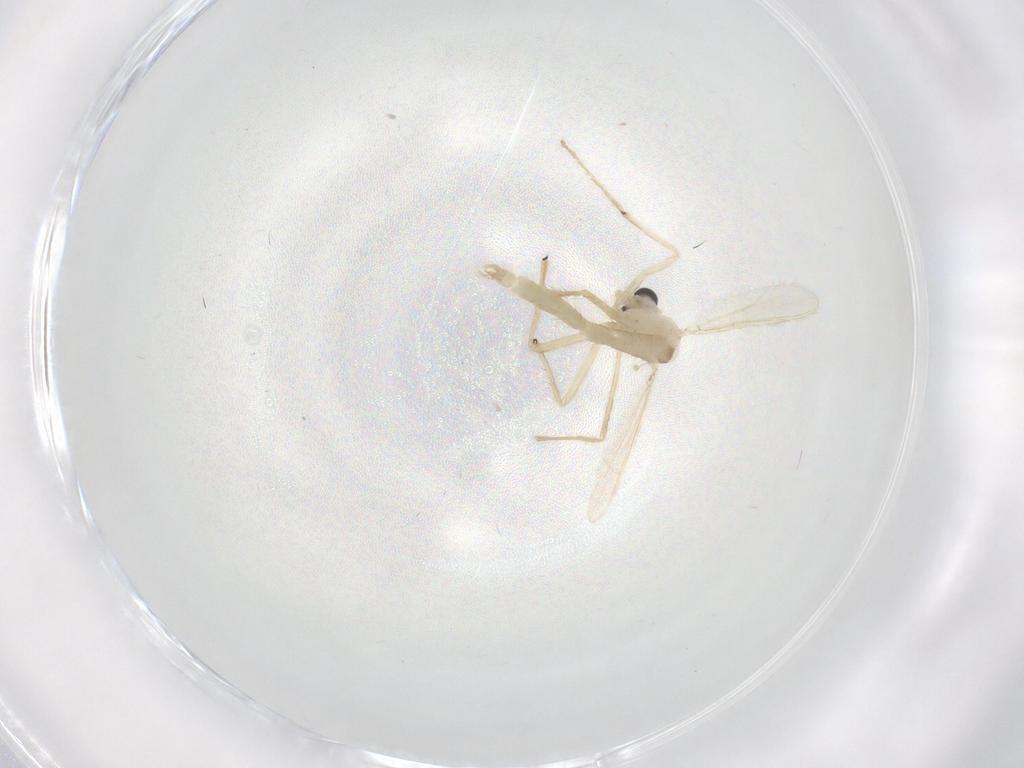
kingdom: Animalia
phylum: Arthropoda
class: Insecta
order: Diptera
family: Chironomidae
